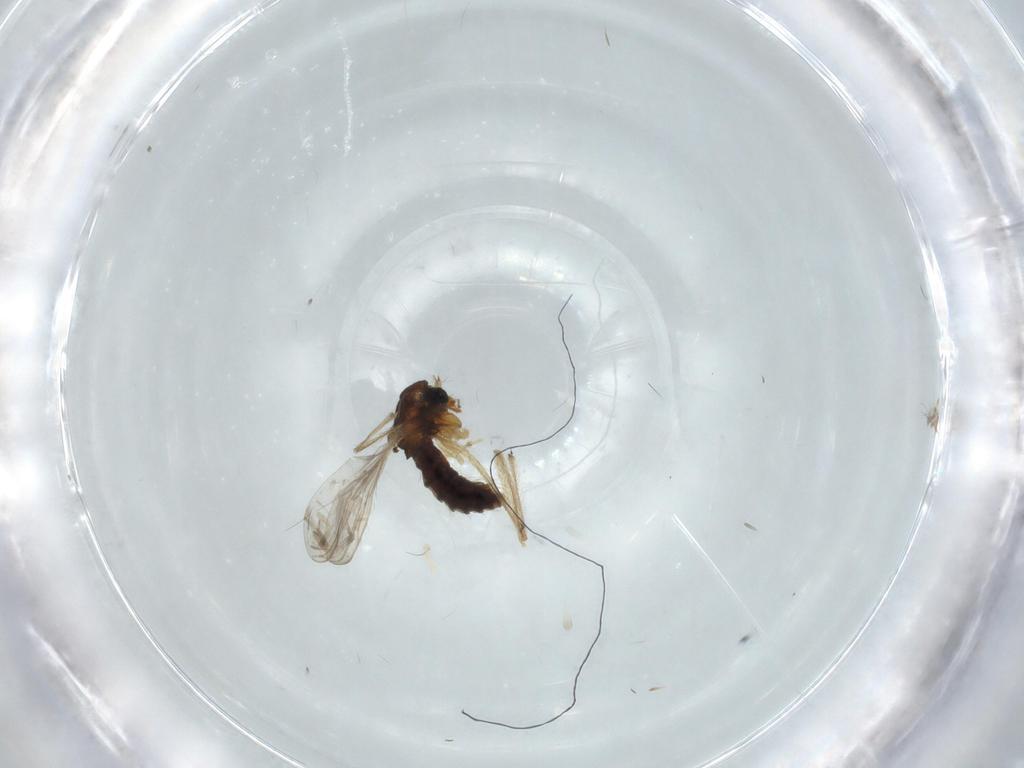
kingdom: Animalia
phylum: Arthropoda
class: Insecta
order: Diptera
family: Chironomidae
